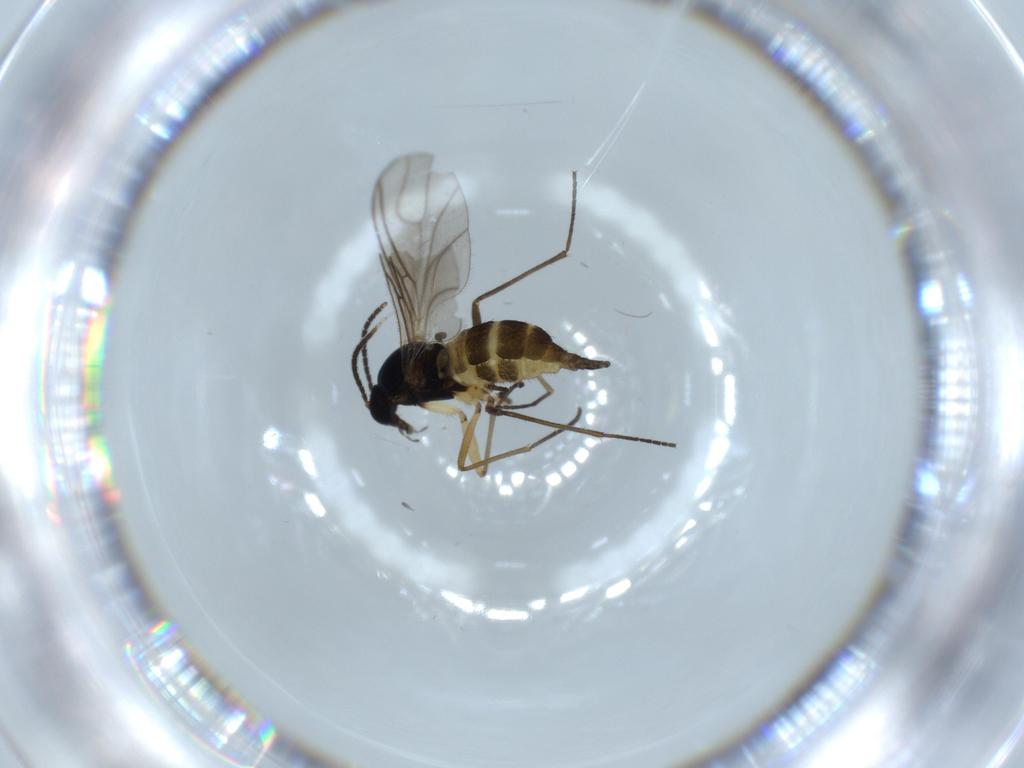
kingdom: Animalia
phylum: Arthropoda
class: Insecta
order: Diptera
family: Sciaridae
